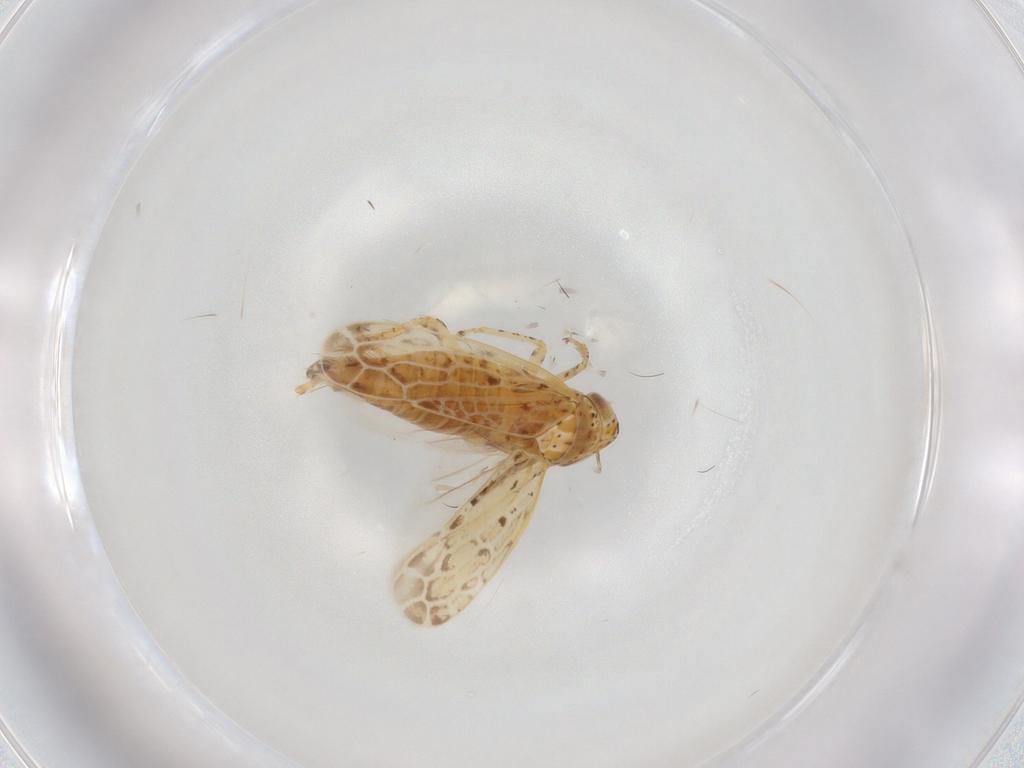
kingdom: Animalia
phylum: Arthropoda
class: Insecta
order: Hemiptera
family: Cicadellidae
